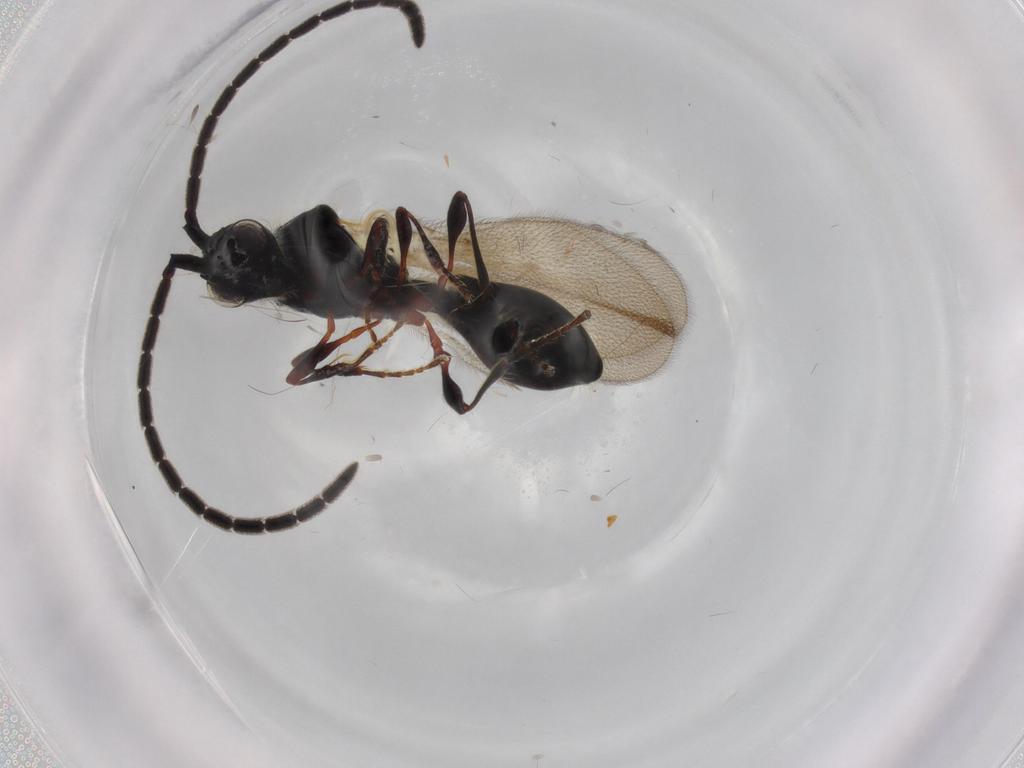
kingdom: Animalia
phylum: Arthropoda
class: Insecta
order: Hymenoptera
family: Diapriidae
